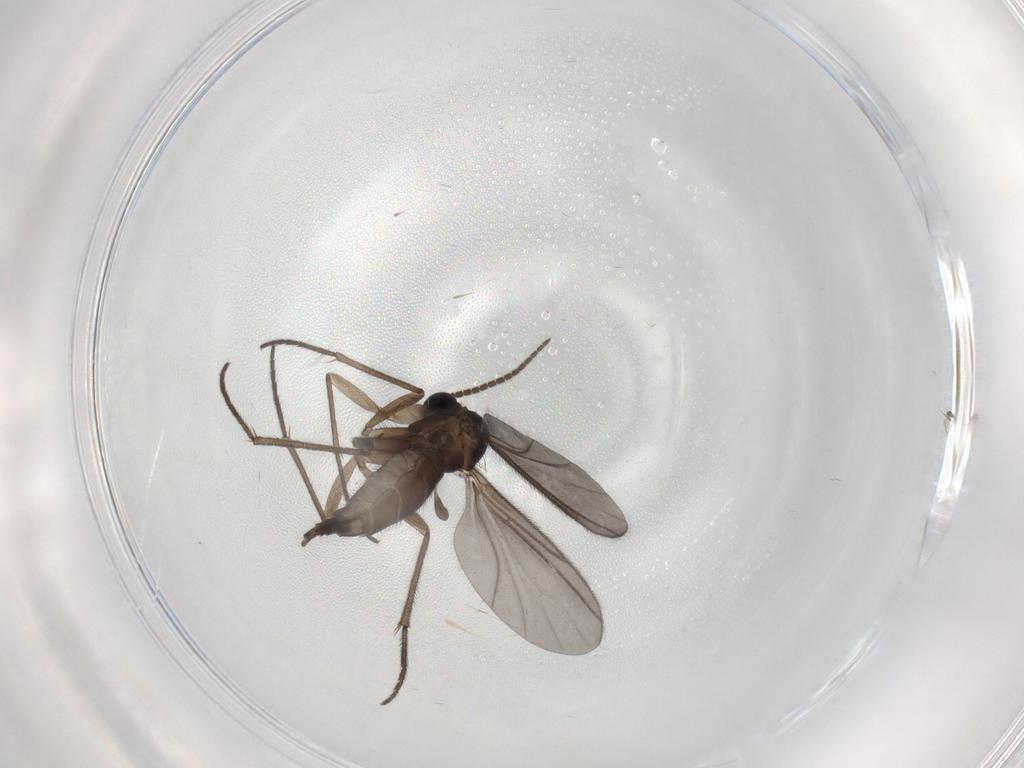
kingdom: Animalia
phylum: Arthropoda
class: Insecta
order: Diptera
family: Sciaridae
